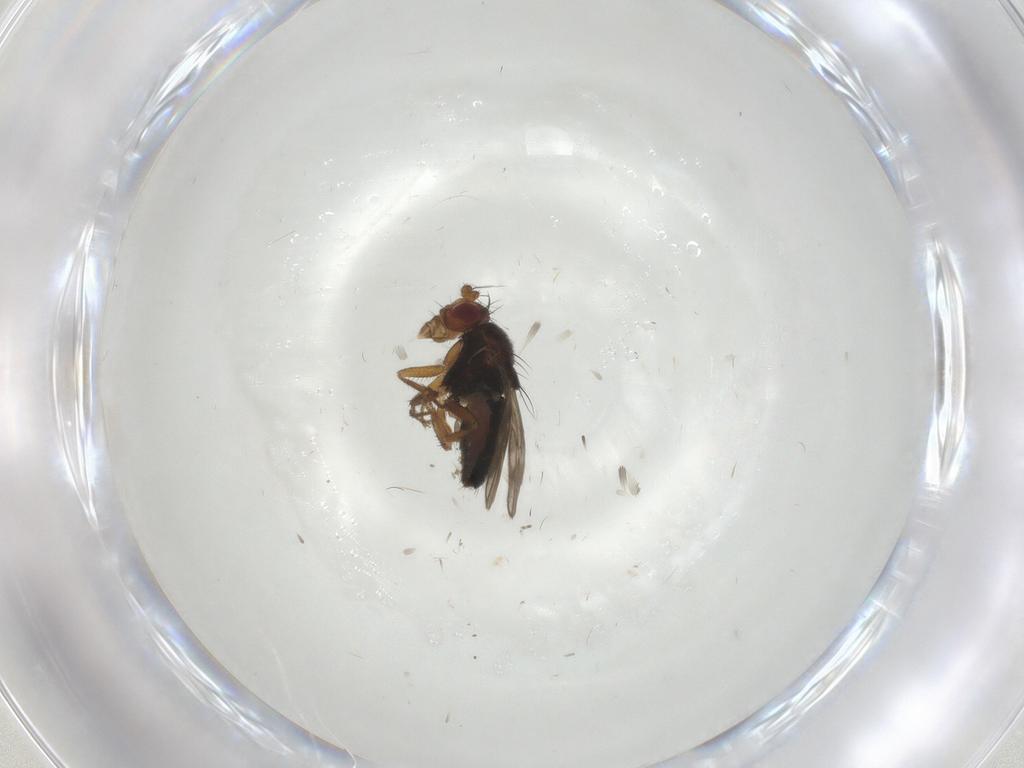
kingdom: Animalia
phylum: Arthropoda
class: Insecta
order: Diptera
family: Sphaeroceridae
